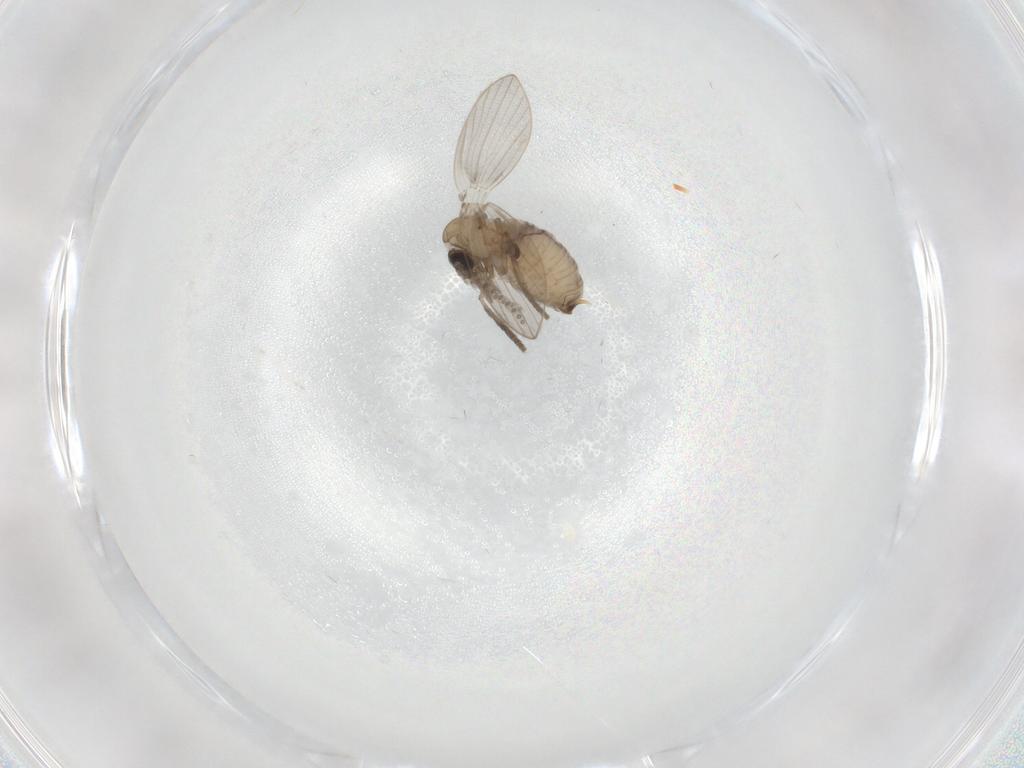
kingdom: Animalia
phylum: Arthropoda
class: Insecta
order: Diptera
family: Psychodidae
